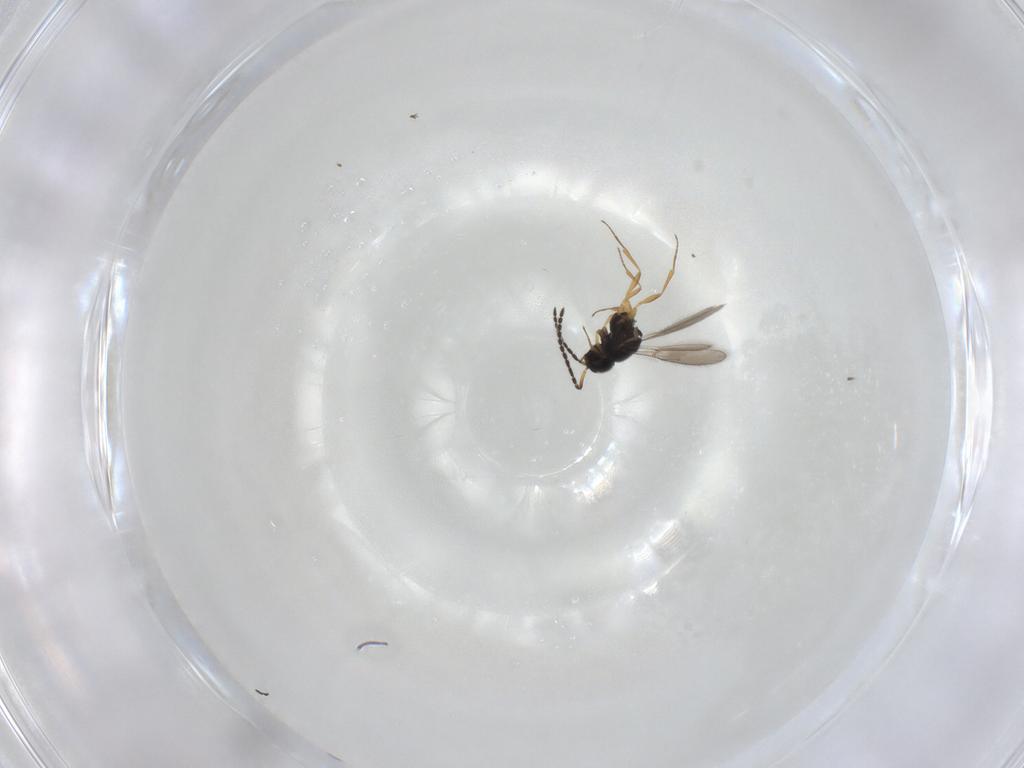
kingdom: Animalia
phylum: Arthropoda
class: Insecta
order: Hymenoptera
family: Scelionidae
